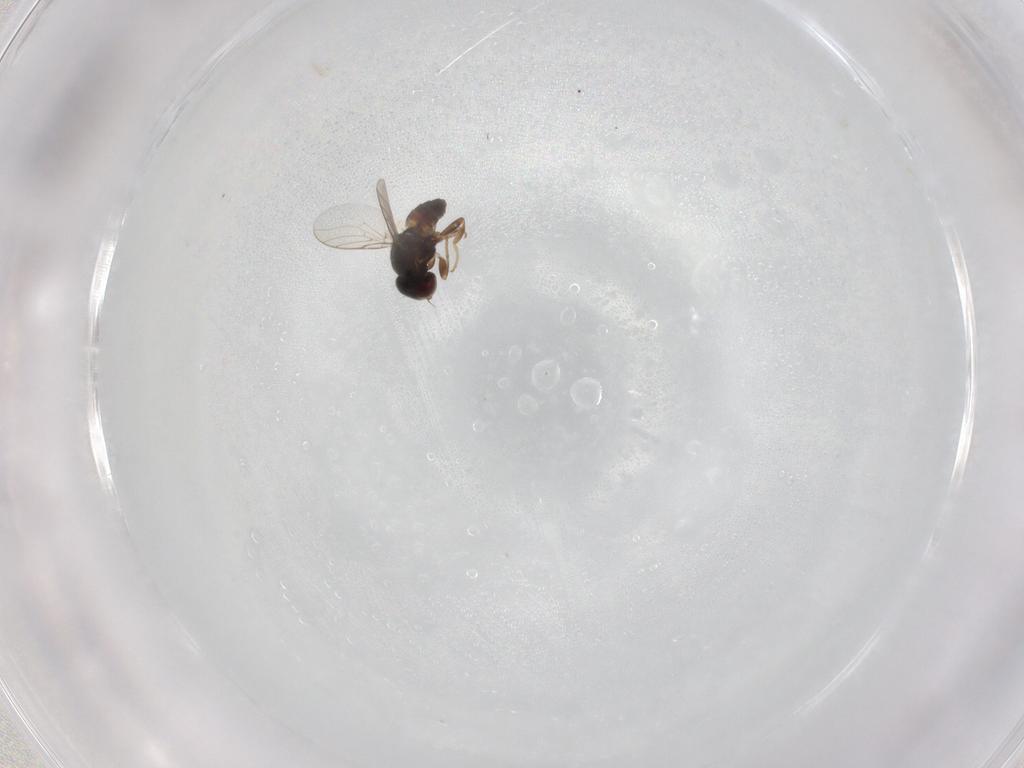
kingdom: Animalia
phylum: Arthropoda
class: Insecta
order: Diptera
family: Chloropidae
